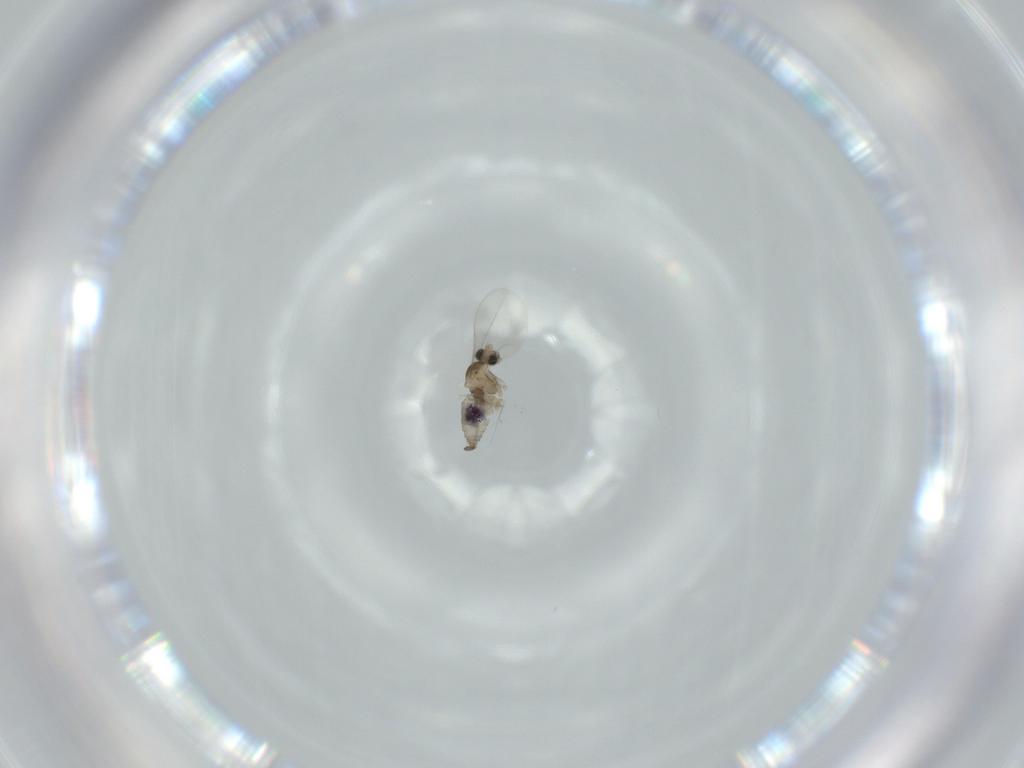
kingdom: Animalia
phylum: Arthropoda
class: Insecta
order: Diptera
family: Cecidomyiidae
